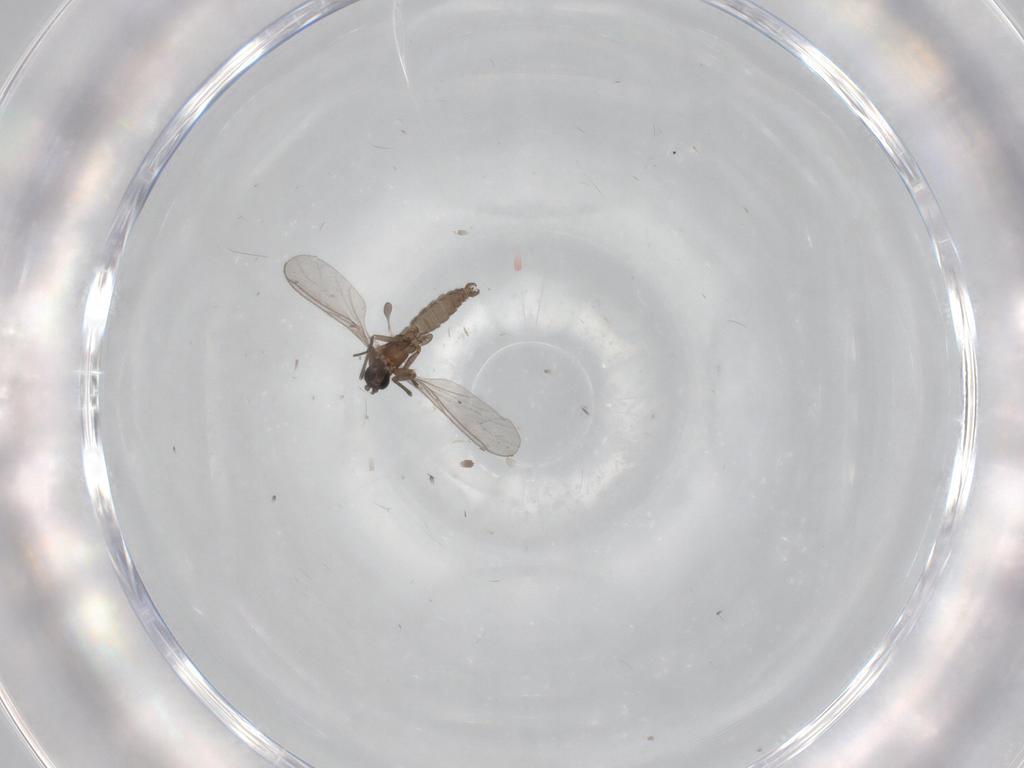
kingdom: Animalia
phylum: Arthropoda
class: Insecta
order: Diptera
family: Sciaridae
